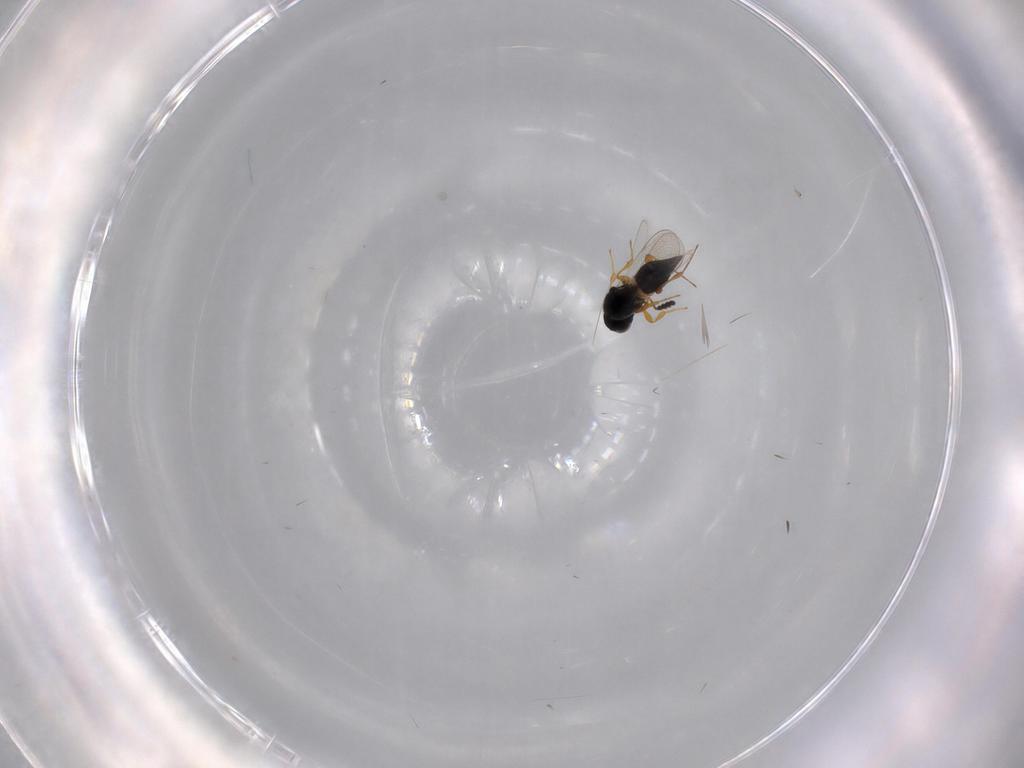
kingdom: Animalia
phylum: Arthropoda
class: Insecta
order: Hymenoptera
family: Platygastridae
